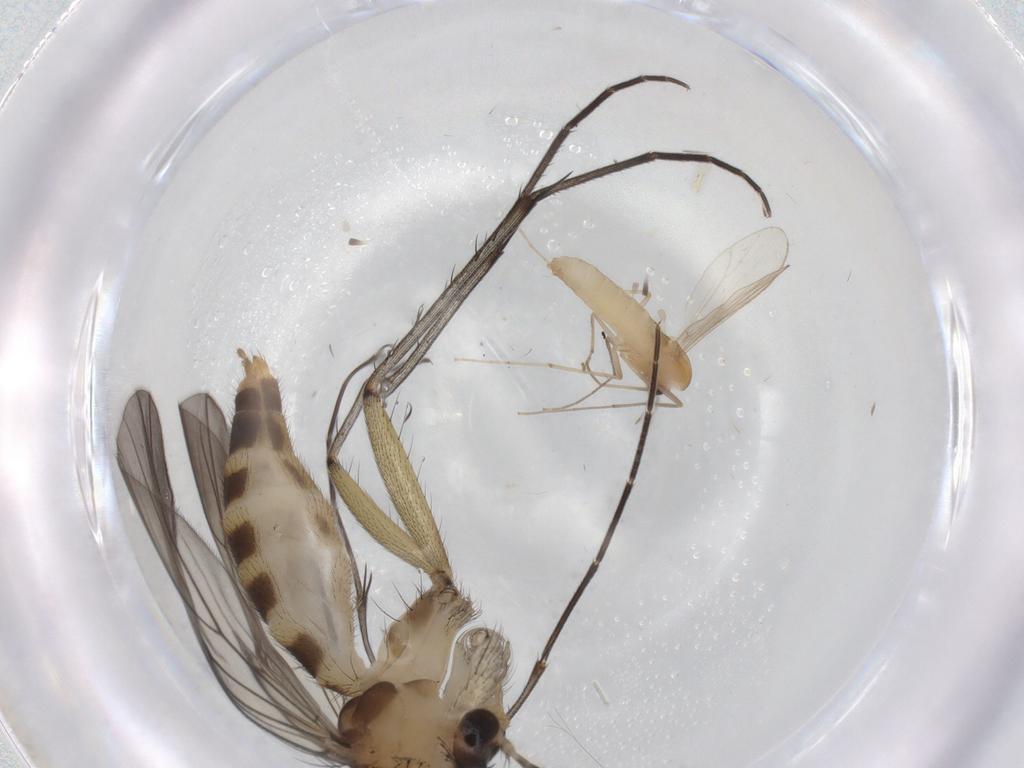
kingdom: Animalia
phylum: Arthropoda
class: Insecta
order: Diptera
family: Mycetophilidae
